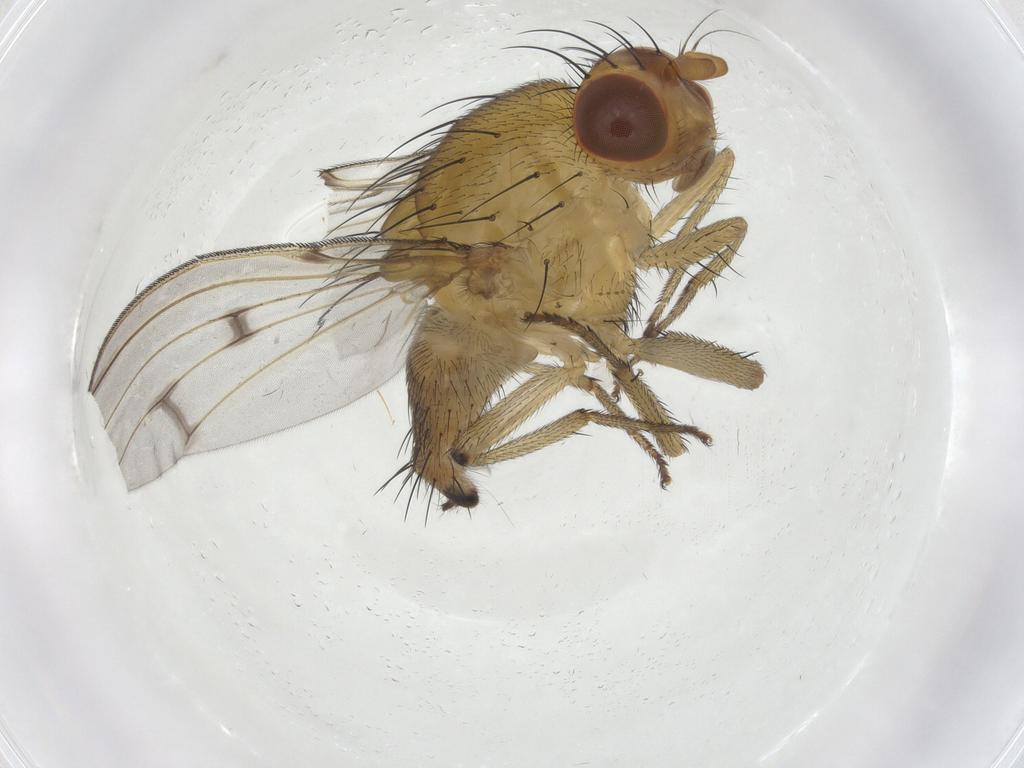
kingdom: Animalia
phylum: Arthropoda
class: Insecta
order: Diptera
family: Chironomidae
